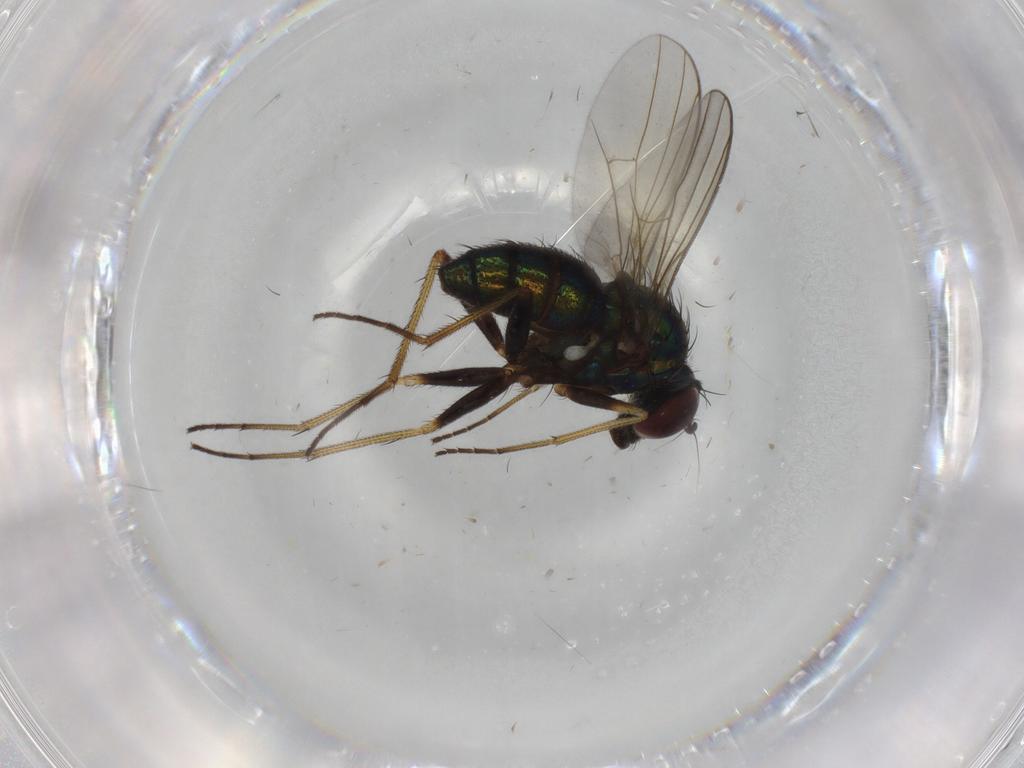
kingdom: Animalia
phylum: Arthropoda
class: Insecta
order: Diptera
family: Dolichopodidae
